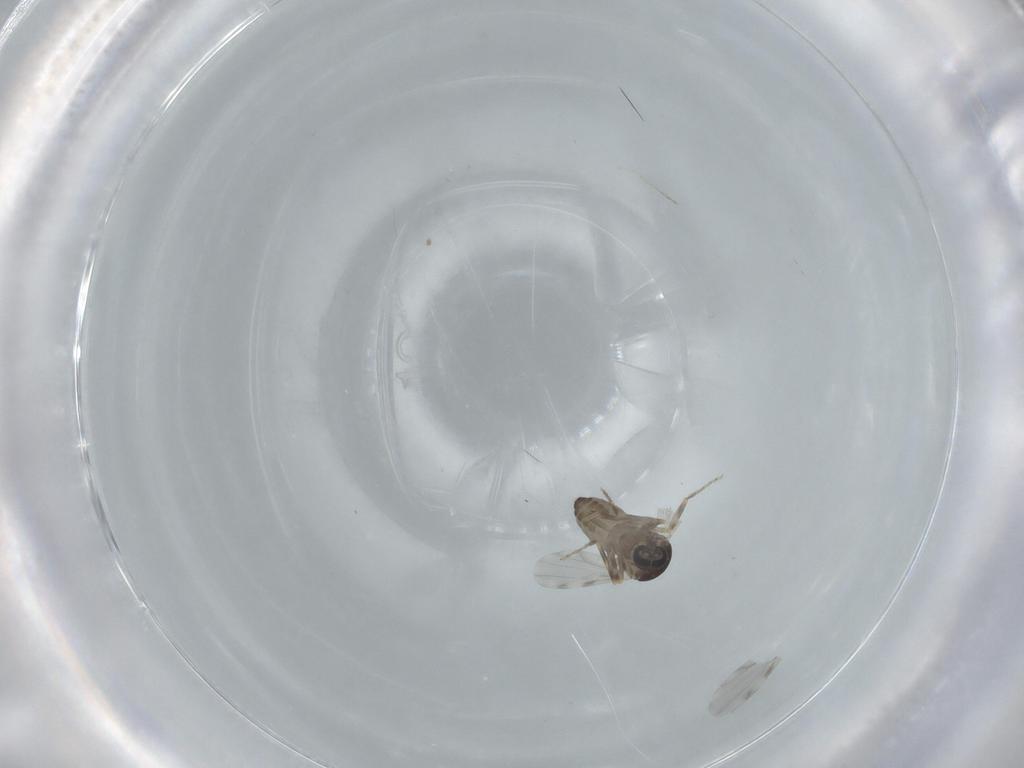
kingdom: Animalia
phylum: Arthropoda
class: Insecta
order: Diptera
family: Ceratopogonidae
